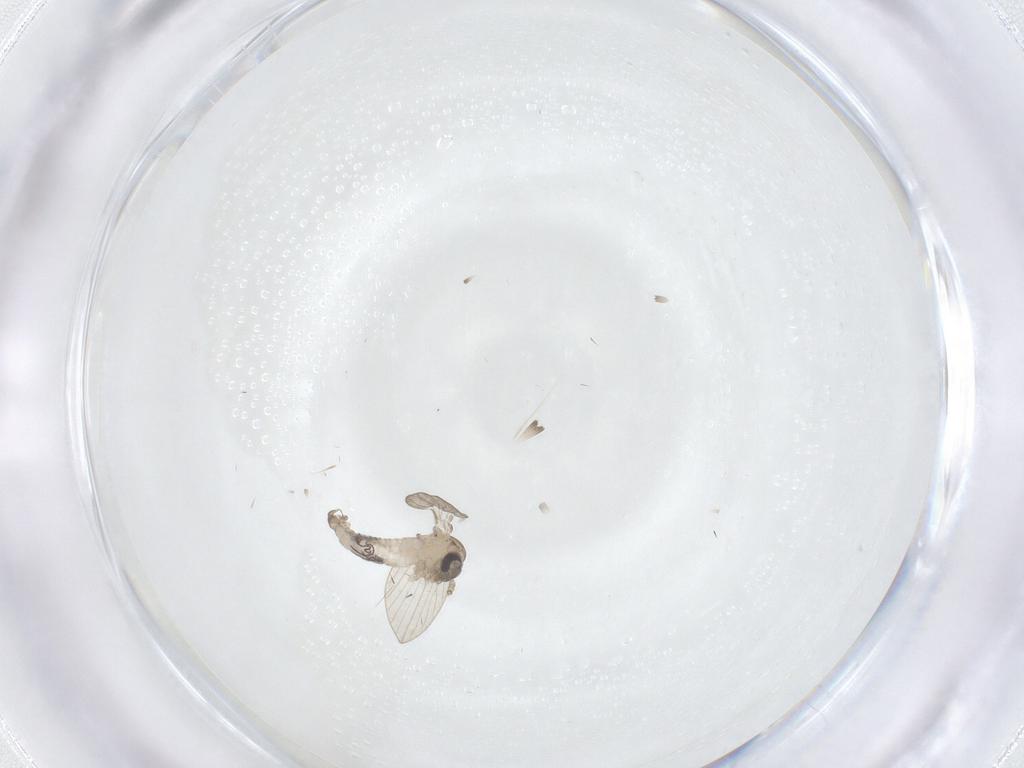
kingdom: Animalia
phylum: Arthropoda
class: Insecta
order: Diptera
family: Psychodidae
